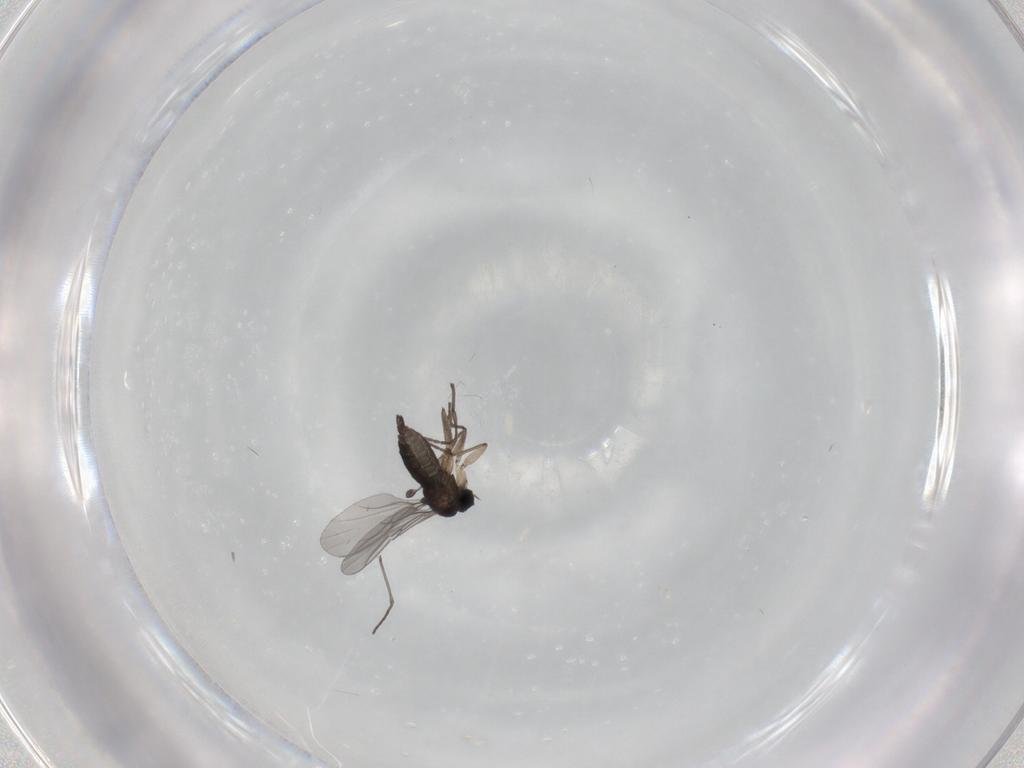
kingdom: Animalia
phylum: Arthropoda
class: Insecta
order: Diptera
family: Sciaridae
